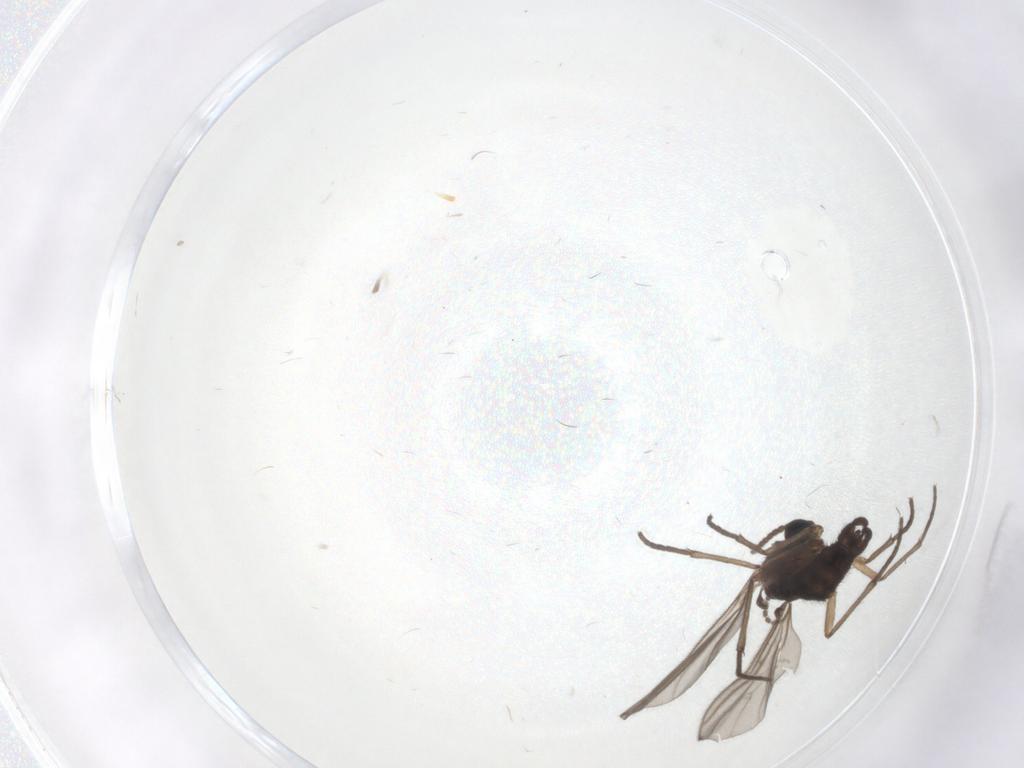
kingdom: Animalia
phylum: Arthropoda
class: Insecta
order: Diptera
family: Sciaridae
